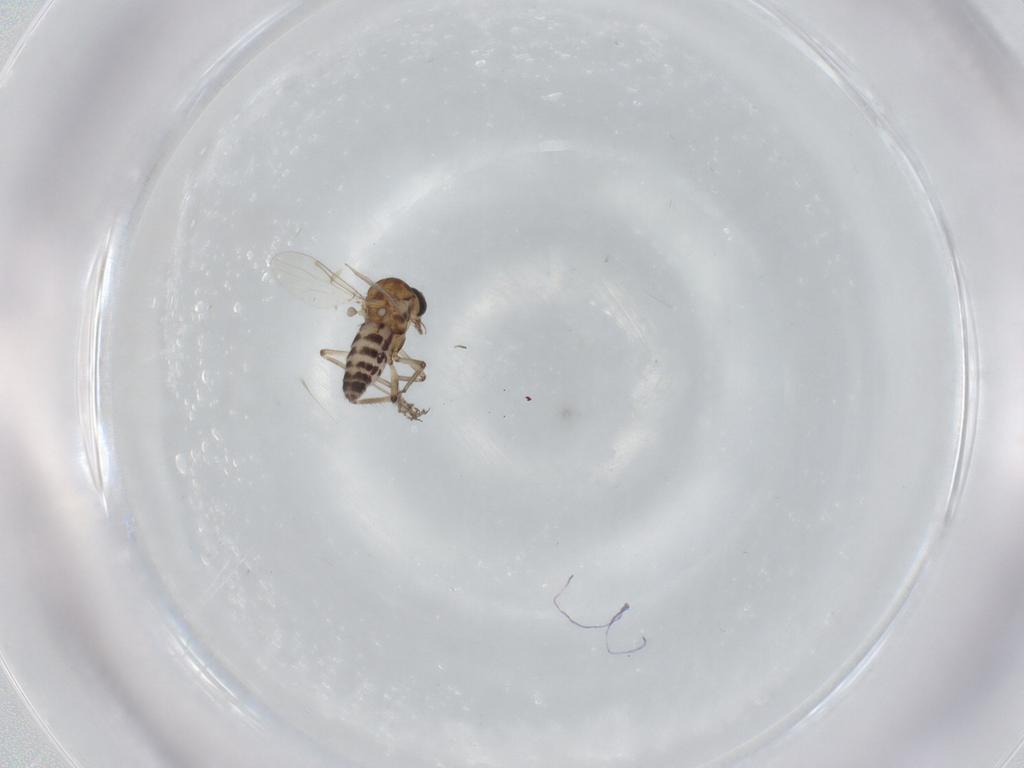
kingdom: Animalia
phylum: Arthropoda
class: Insecta
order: Diptera
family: Ceratopogonidae
